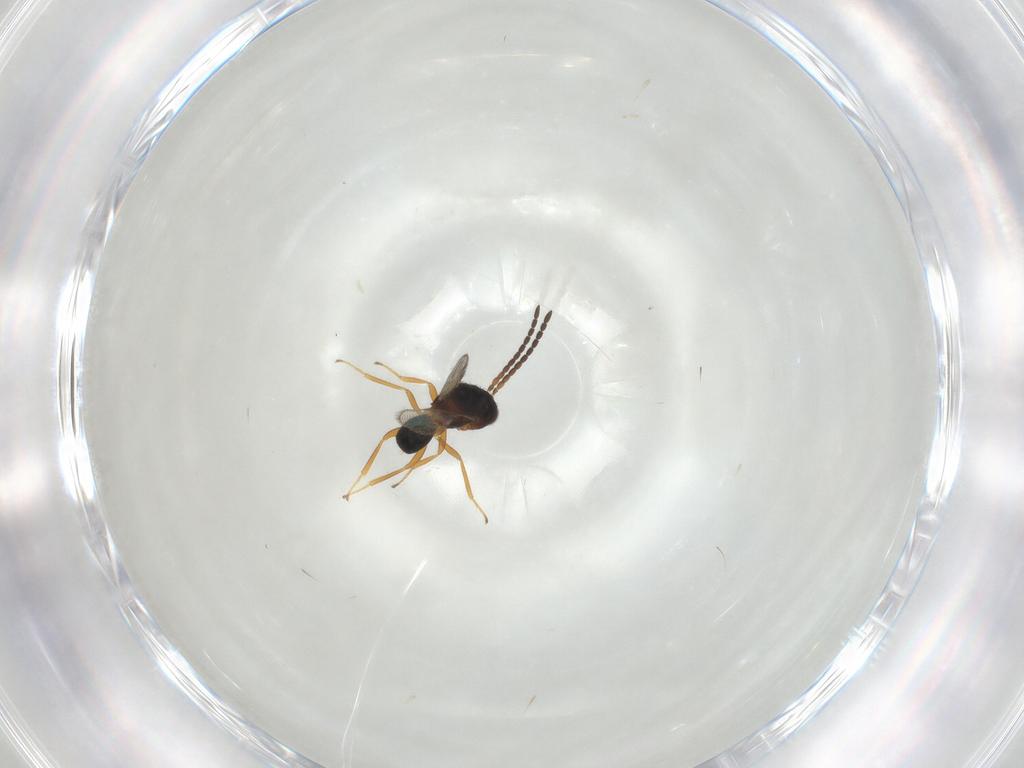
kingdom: Animalia
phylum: Arthropoda
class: Insecta
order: Hymenoptera
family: Diparidae
